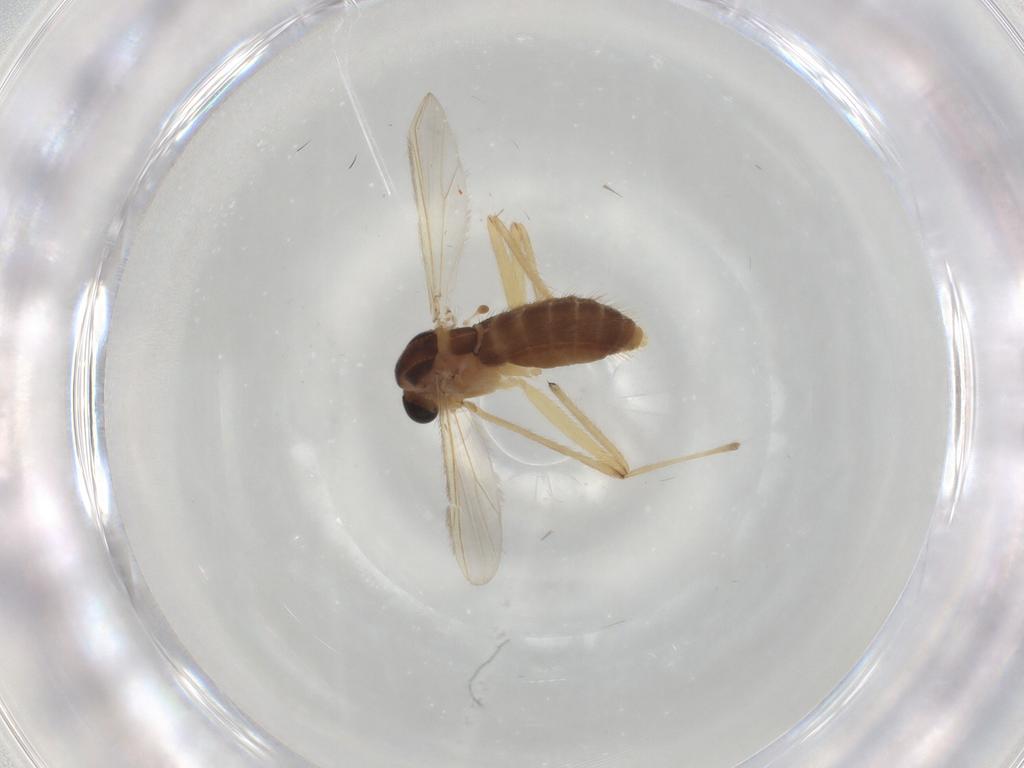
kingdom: Animalia
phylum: Arthropoda
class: Insecta
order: Diptera
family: Chironomidae
